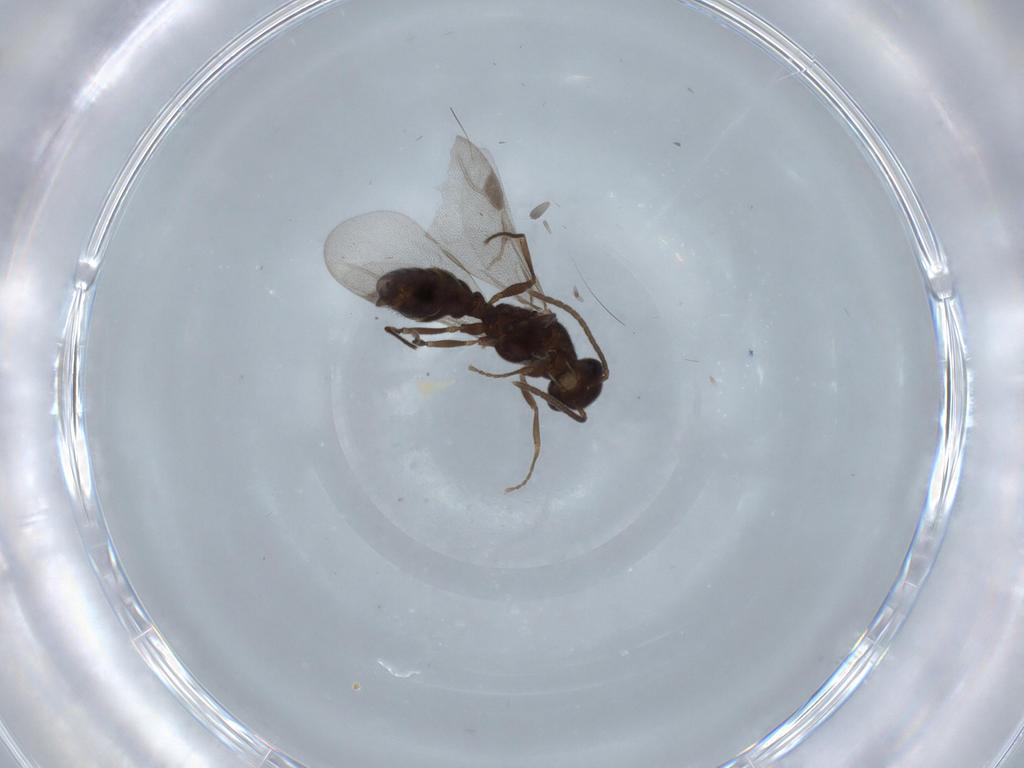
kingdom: Animalia
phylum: Arthropoda
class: Insecta
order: Hymenoptera
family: Formicidae
